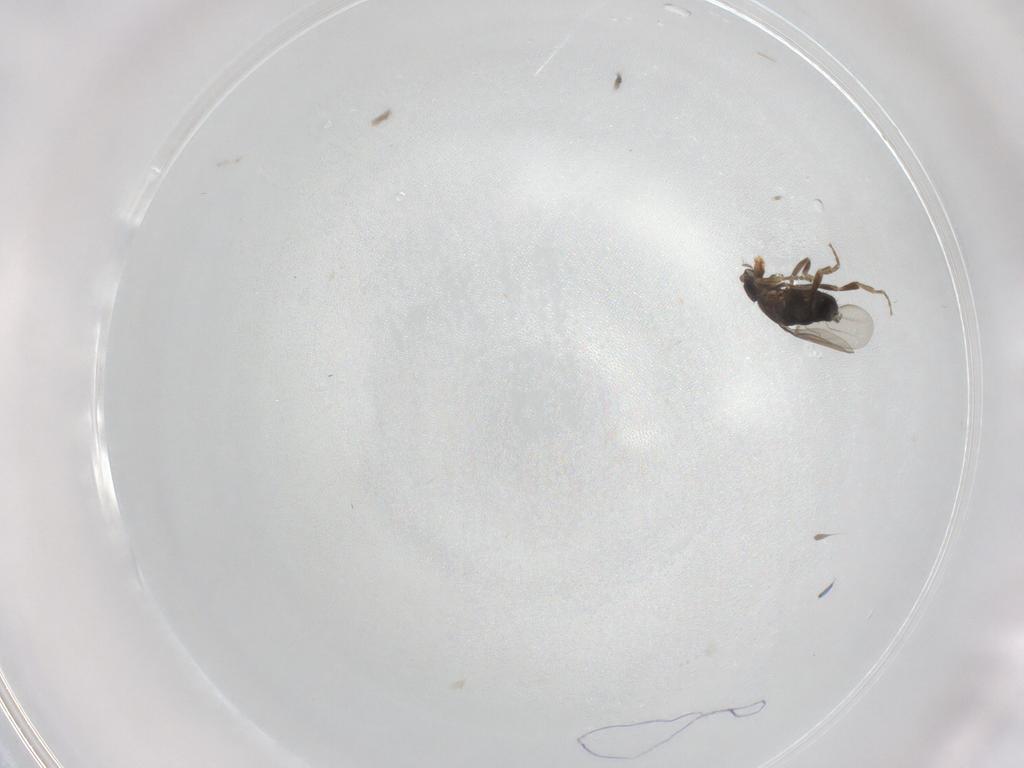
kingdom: Animalia
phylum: Arthropoda
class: Insecta
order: Diptera
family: Phoridae
